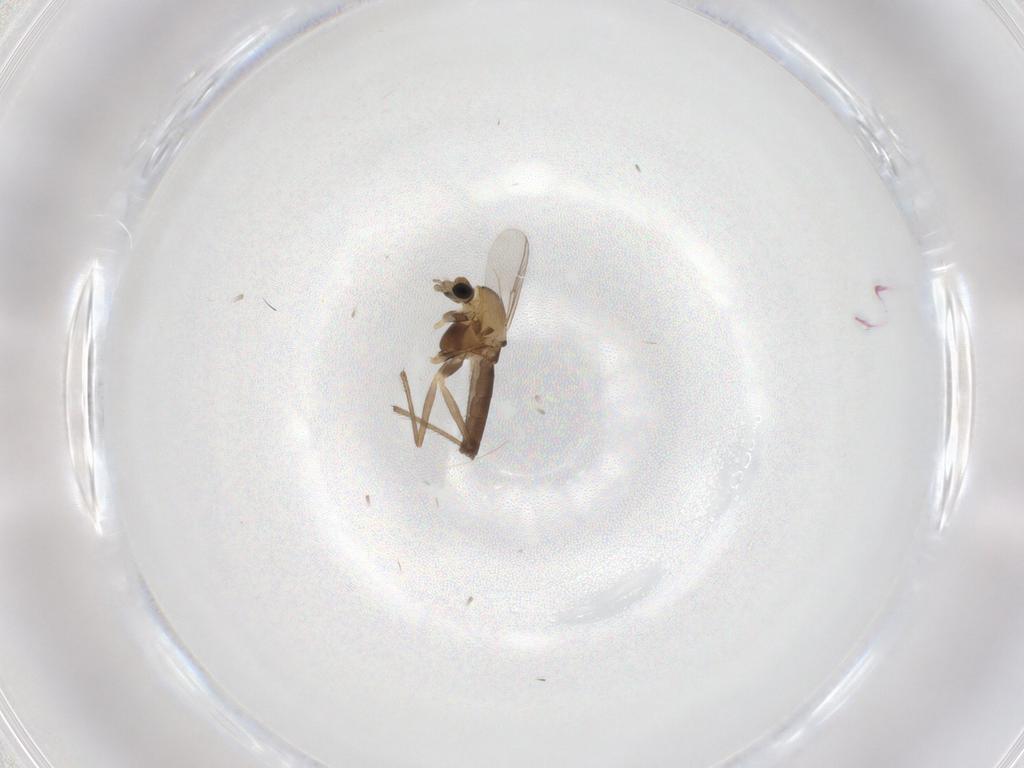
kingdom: Animalia
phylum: Arthropoda
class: Insecta
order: Diptera
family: Chironomidae
